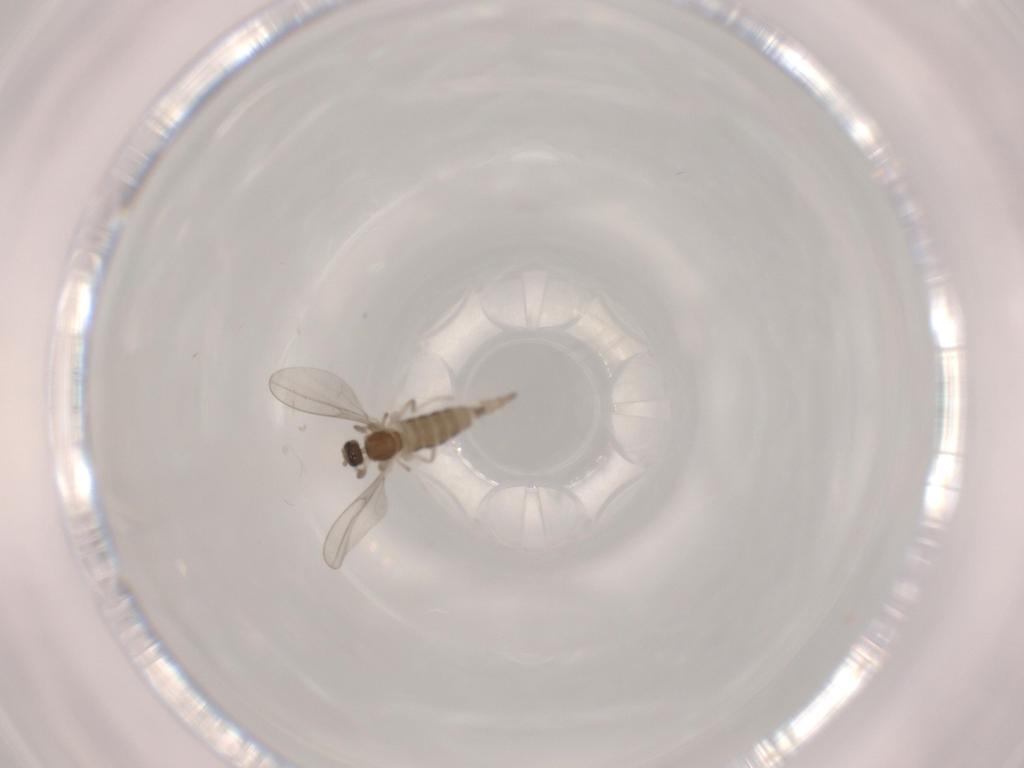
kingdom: Animalia
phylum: Arthropoda
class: Insecta
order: Diptera
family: Cecidomyiidae
